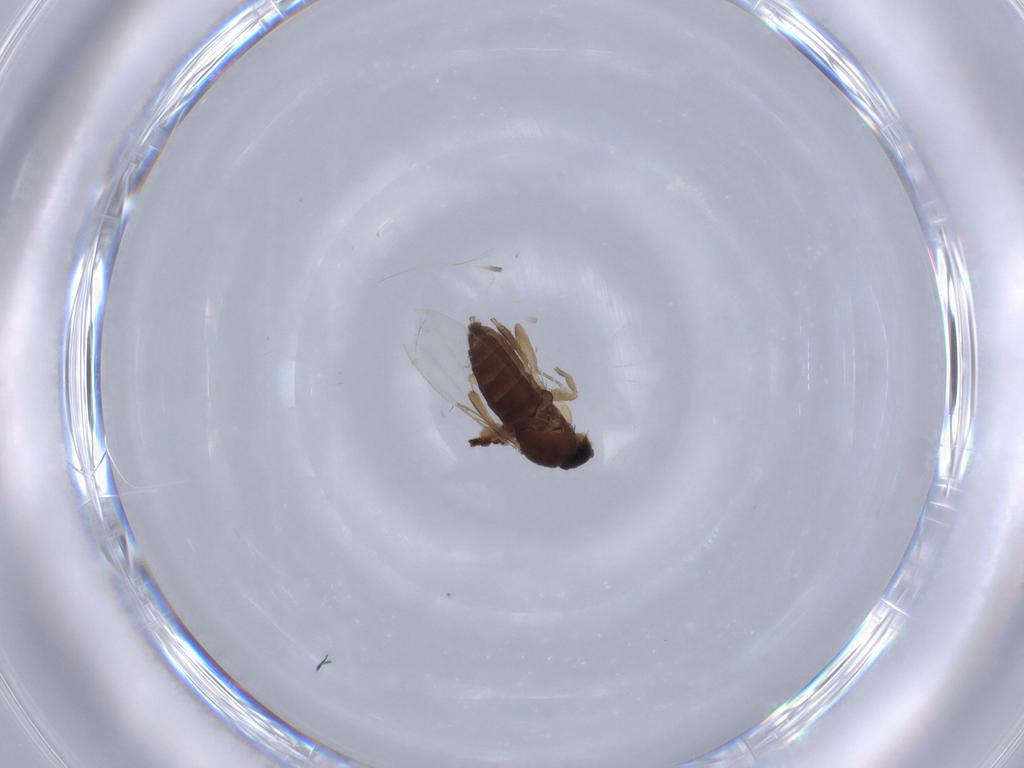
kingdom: Animalia
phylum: Arthropoda
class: Insecta
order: Diptera
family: Phoridae
